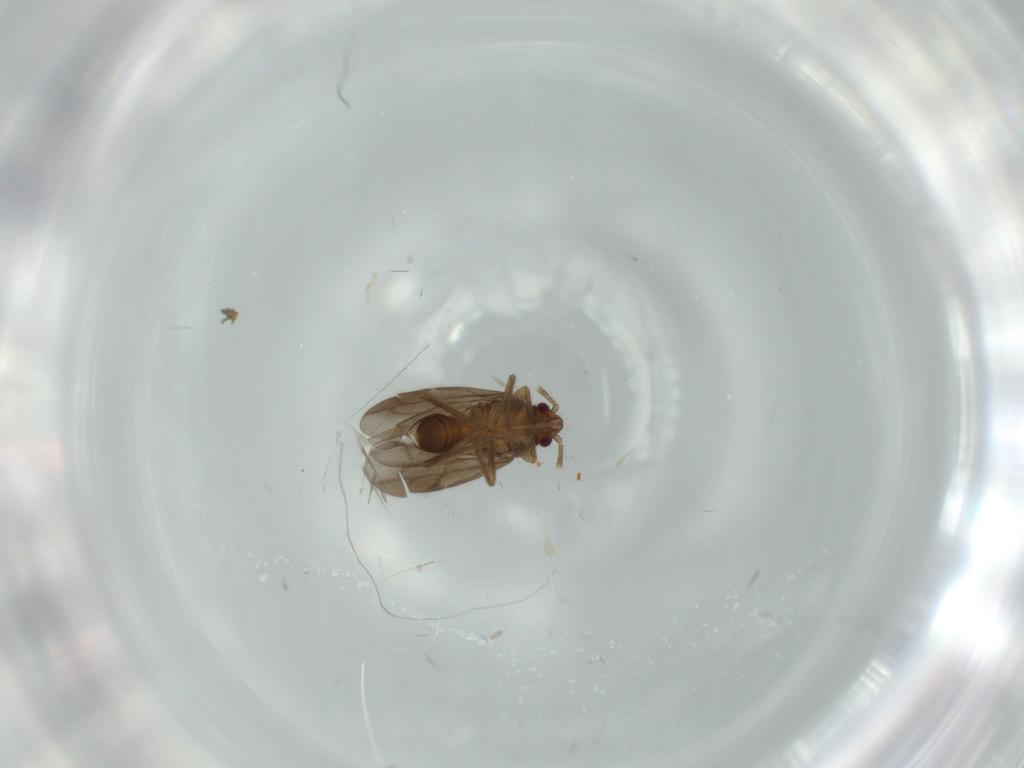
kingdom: Animalia
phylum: Arthropoda
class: Insecta
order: Hemiptera
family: Ceratocombidae
